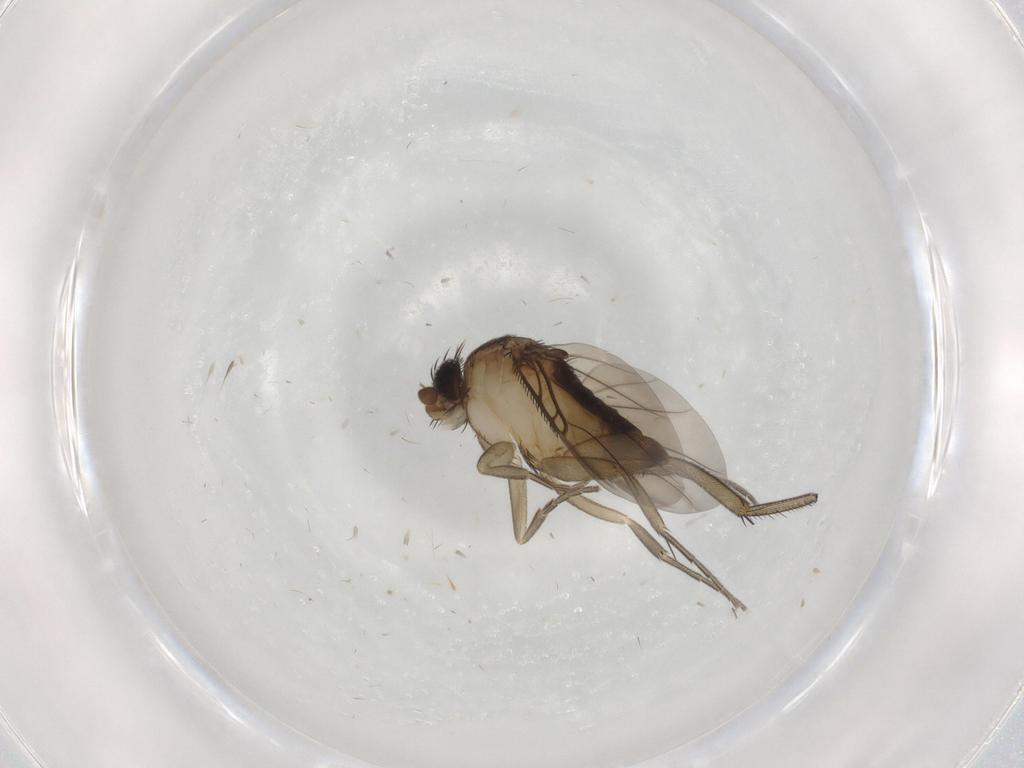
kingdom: Animalia
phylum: Arthropoda
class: Insecta
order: Diptera
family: Phoridae
